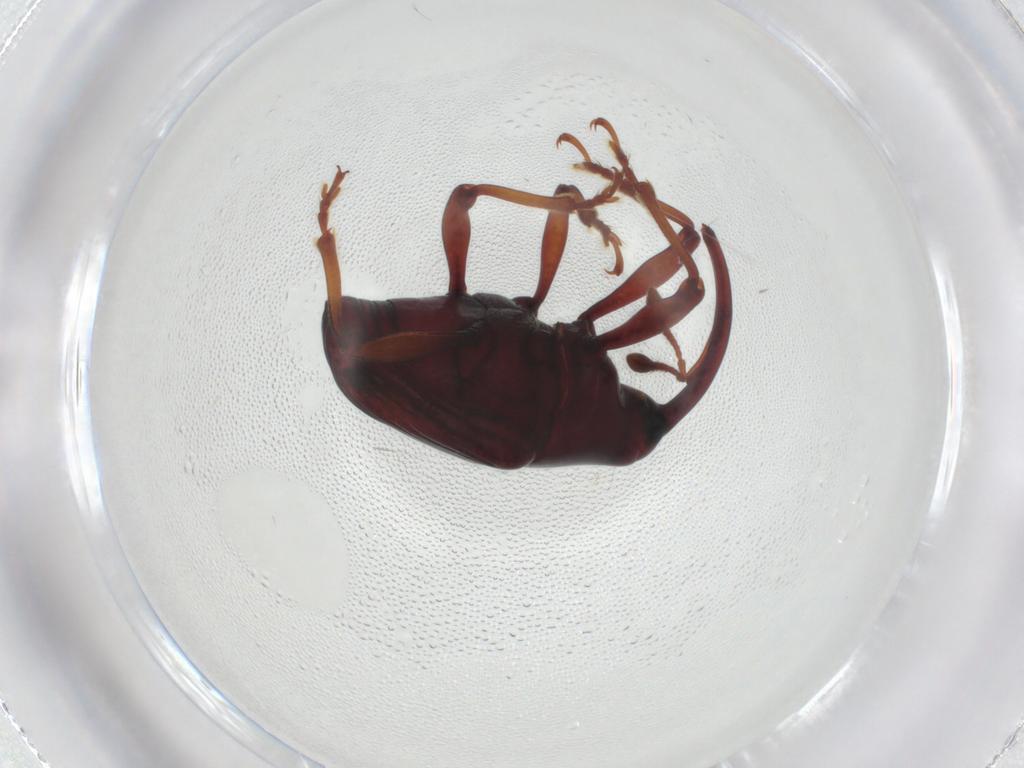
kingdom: Animalia
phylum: Arthropoda
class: Insecta
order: Coleoptera
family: Curculionidae
